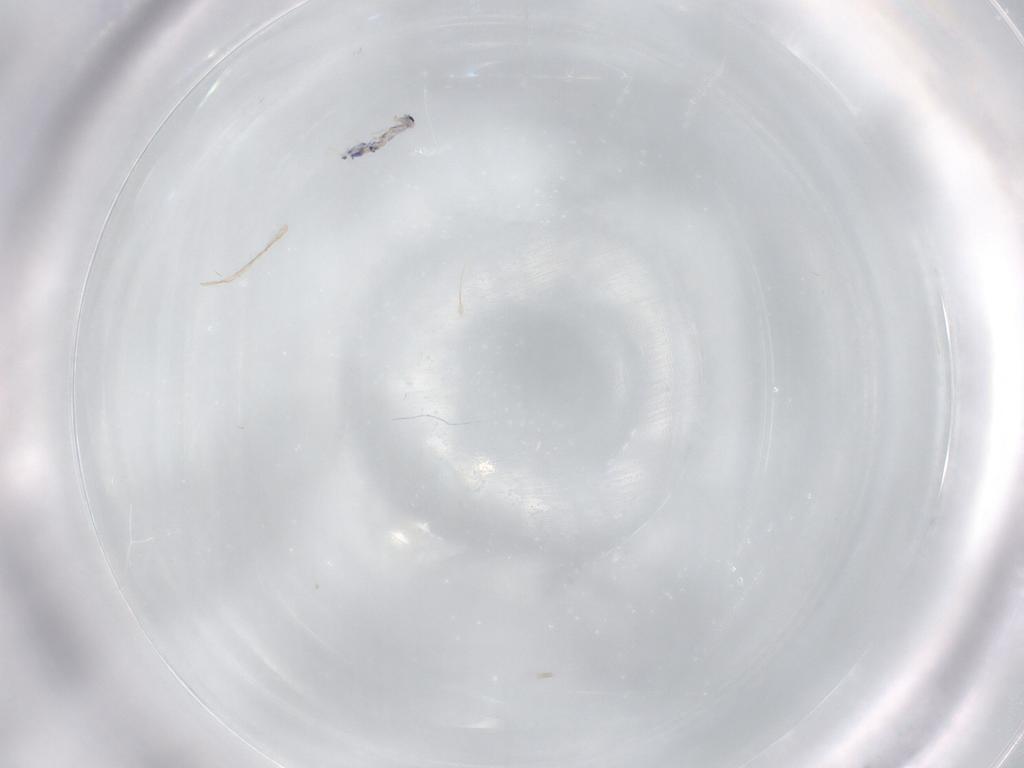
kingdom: Animalia
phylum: Arthropoda
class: Collembola
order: Entomobryomorpha
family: Entomobryidae
